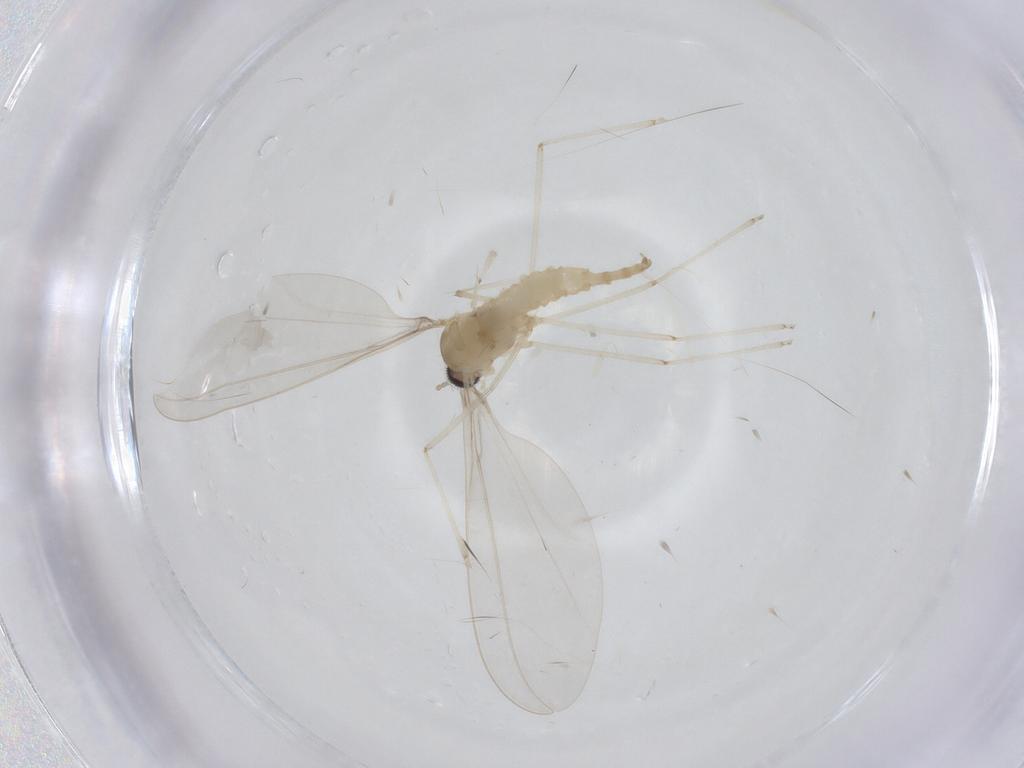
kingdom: Animalia
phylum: Arthropoda
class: Insecta
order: Diptera
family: Cecidomyiidae
